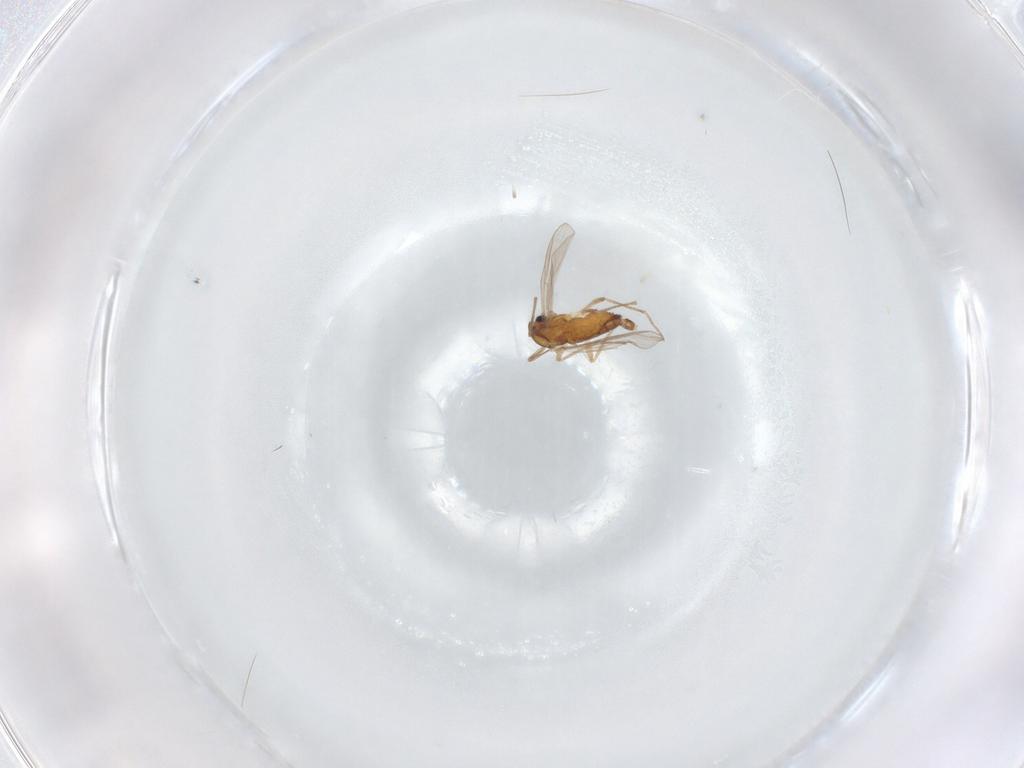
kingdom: Animalia
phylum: Arthropoda
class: Insecta
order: Diptera
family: Chironomidae
